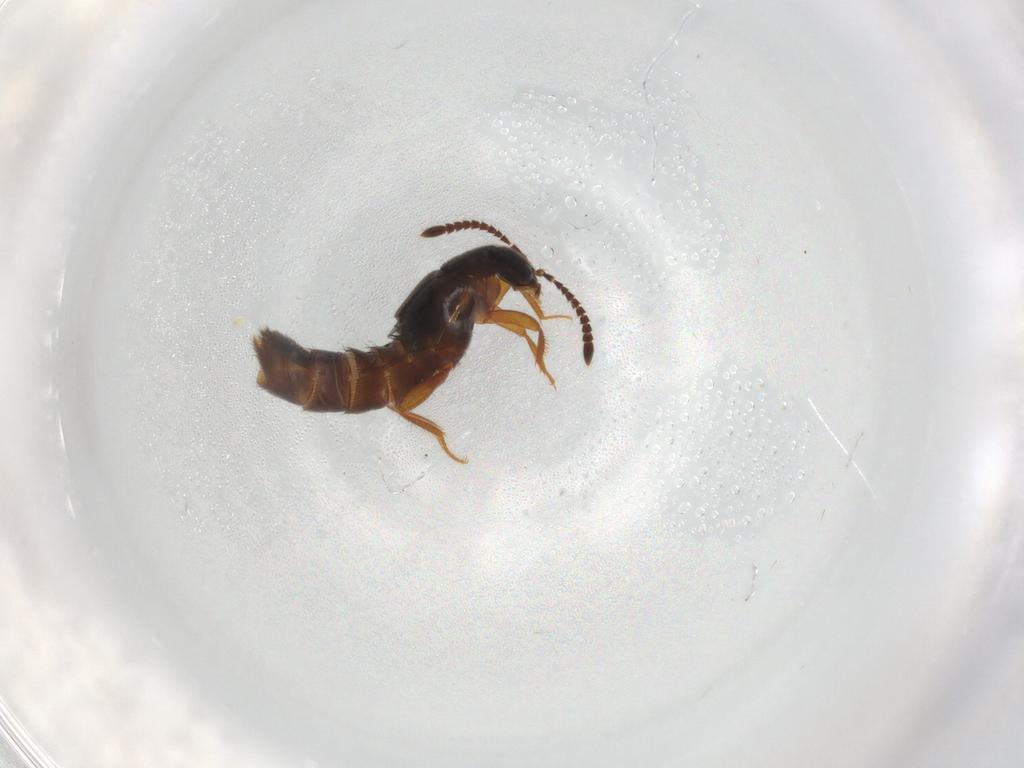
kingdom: Animalia
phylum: Arthropoda
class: Insecta
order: Coleoptera
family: Staphylinidae
